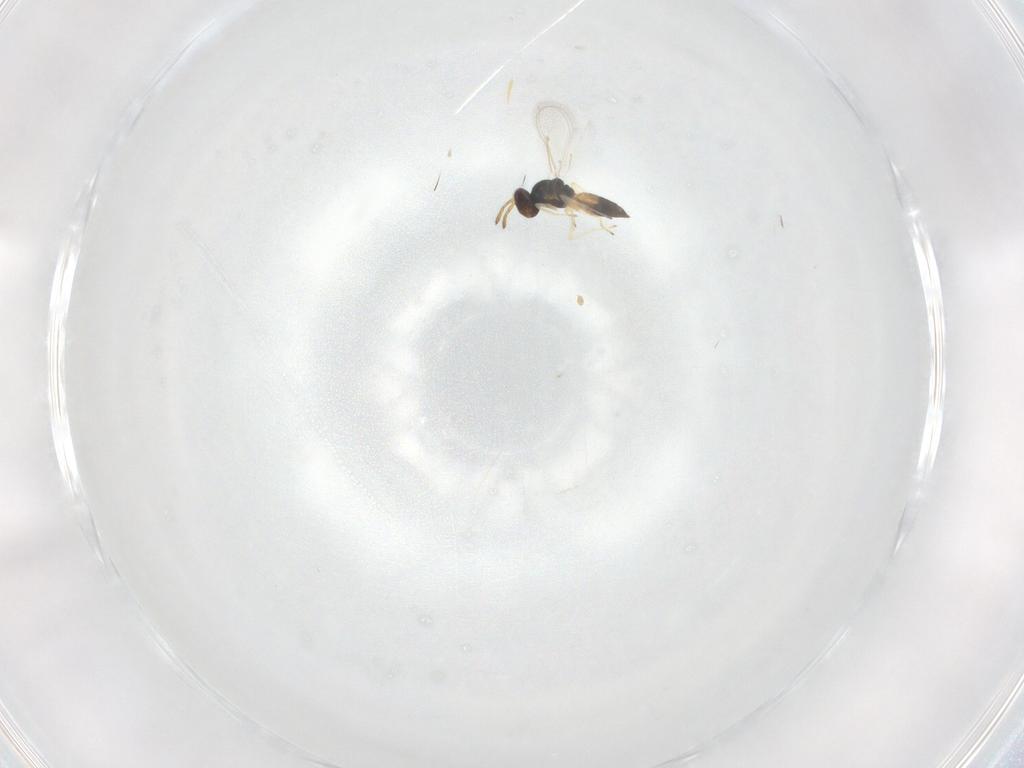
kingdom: Animalia
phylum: Arthropoda
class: Insecta
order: Hymenoptera
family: Eulophidae
